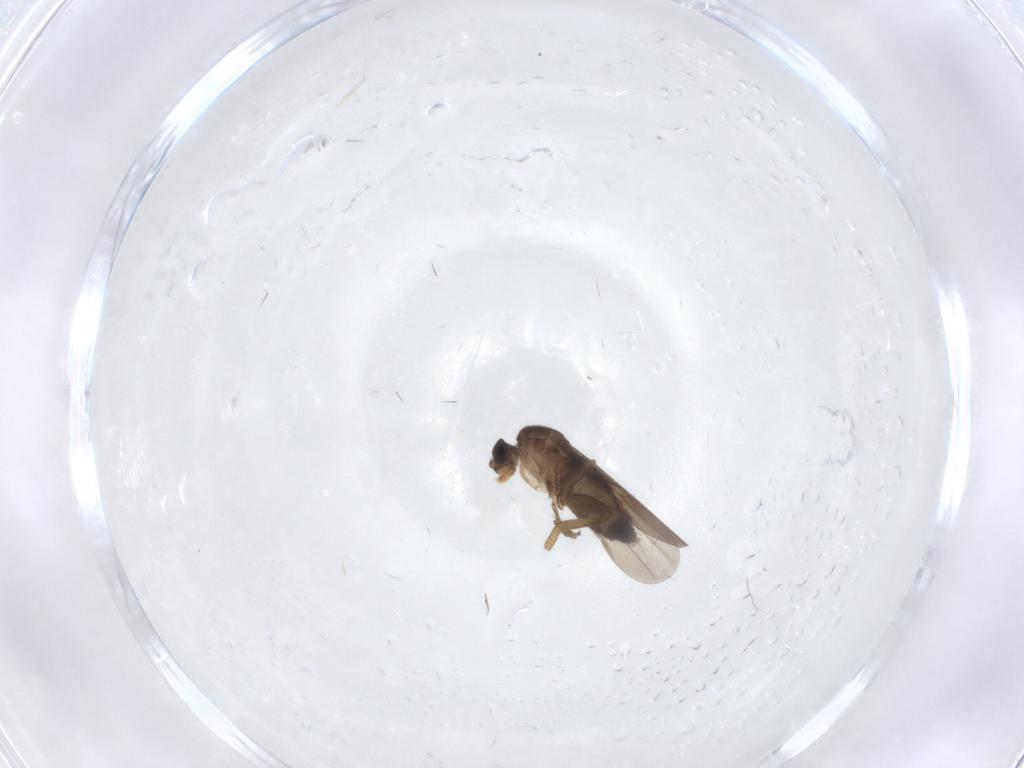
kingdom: Animalia
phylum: Arthropoda
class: Insecta
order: Diptera
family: Phoridae
